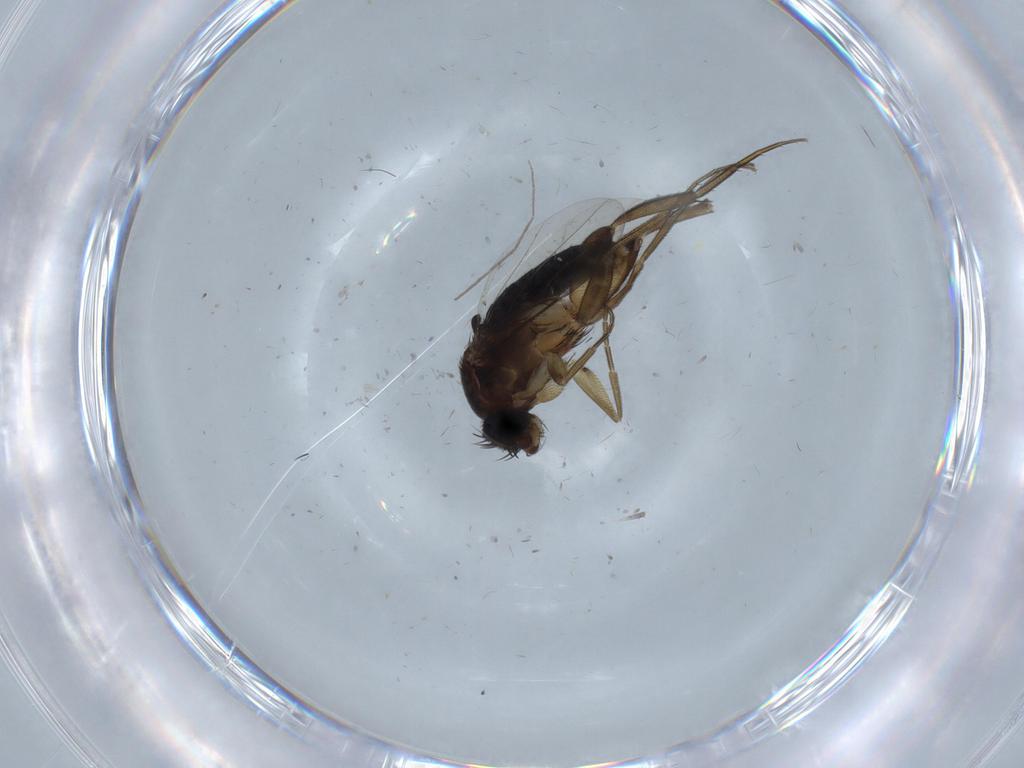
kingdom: Animalia
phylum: Arthropoda
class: Insecta
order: Diptera
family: Phoridae
